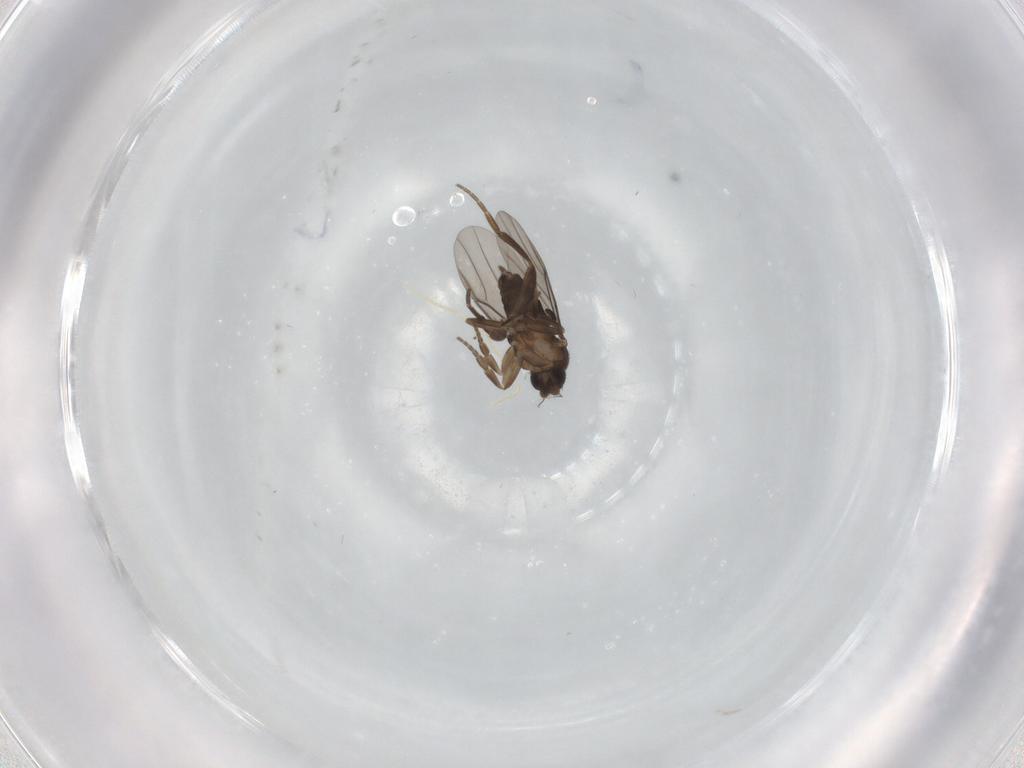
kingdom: Animalia
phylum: Arthropoda
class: Insecta
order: Diptera
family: Phoridae
